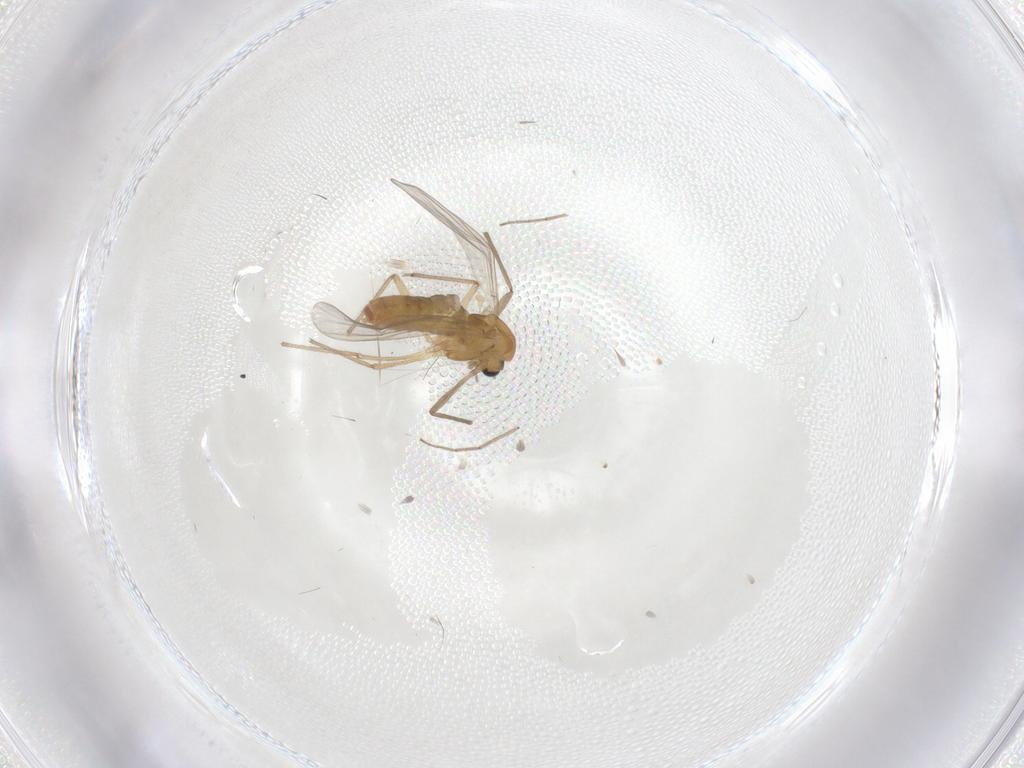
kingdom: Animalia
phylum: Arthropoda
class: Insecta
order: Diptera
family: Chironomidae
